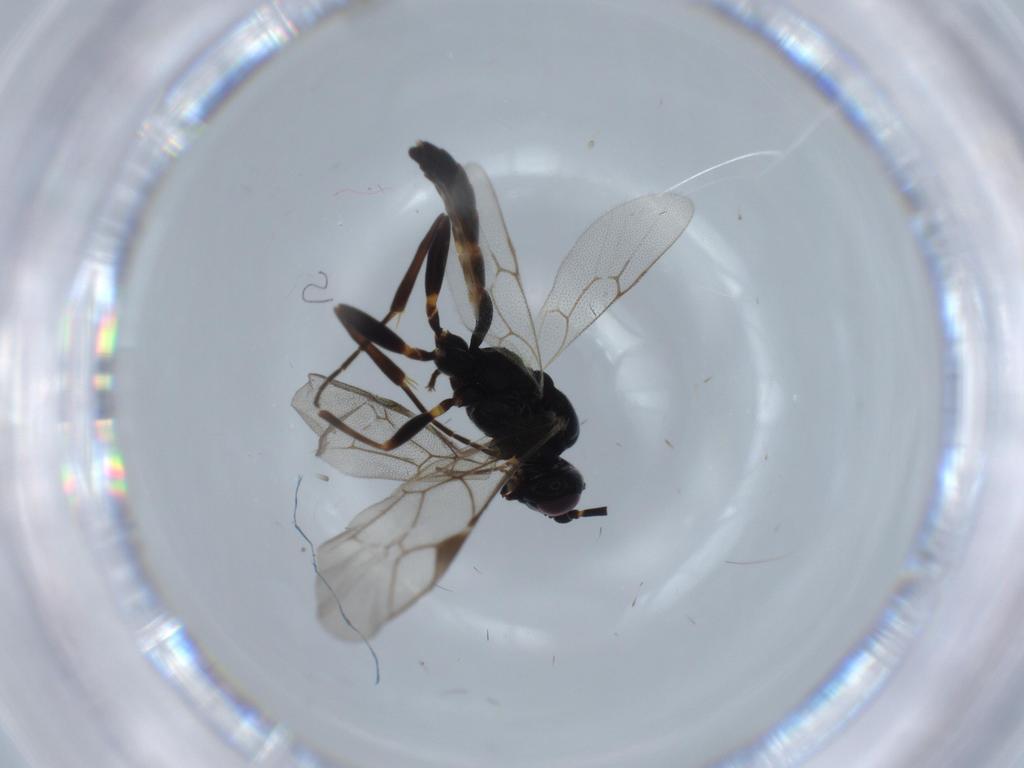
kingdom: Animalia
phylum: Arthropoda
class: Insecta
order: Hymenoptera
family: Ichneumonidae
